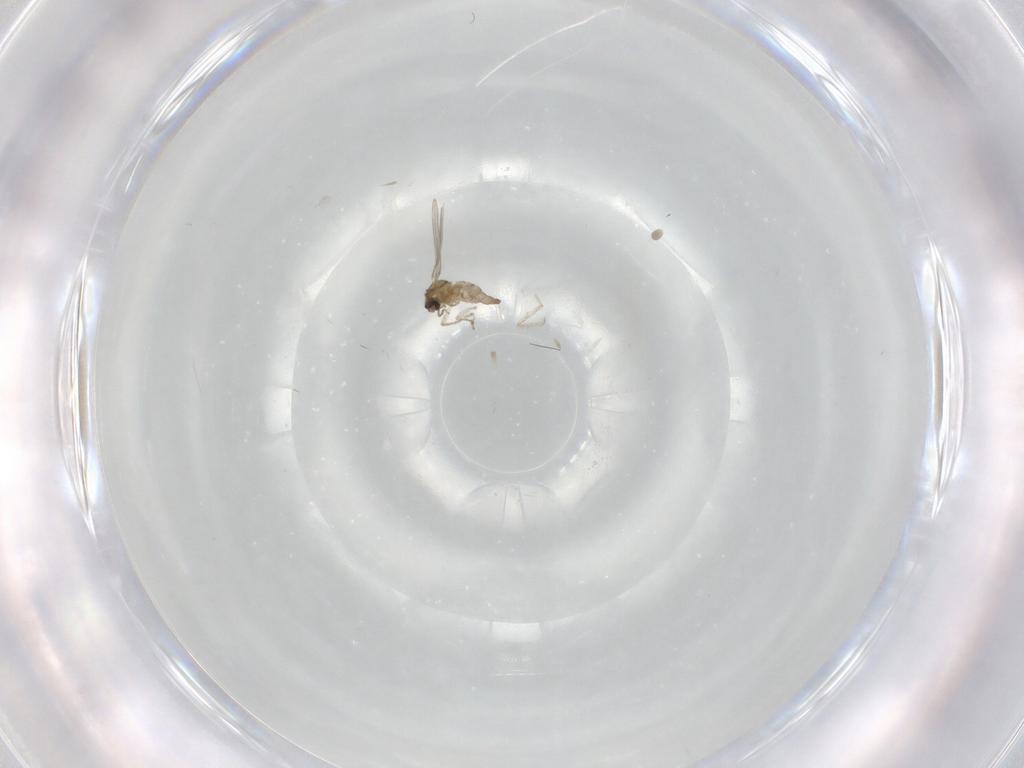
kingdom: Animalia
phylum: Arthropoda
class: Insecta
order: Diptera
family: Cecidomyiidae
